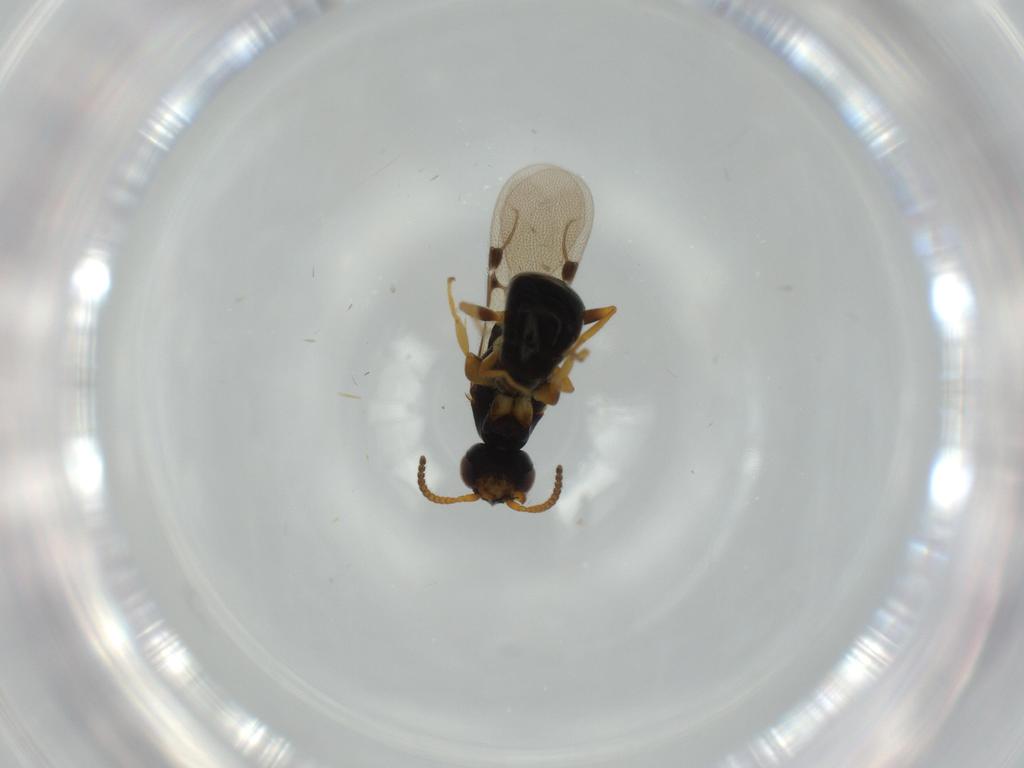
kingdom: Animalia
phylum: Arthropoda
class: Insecta
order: Hymenoptera
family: Bethylidae
